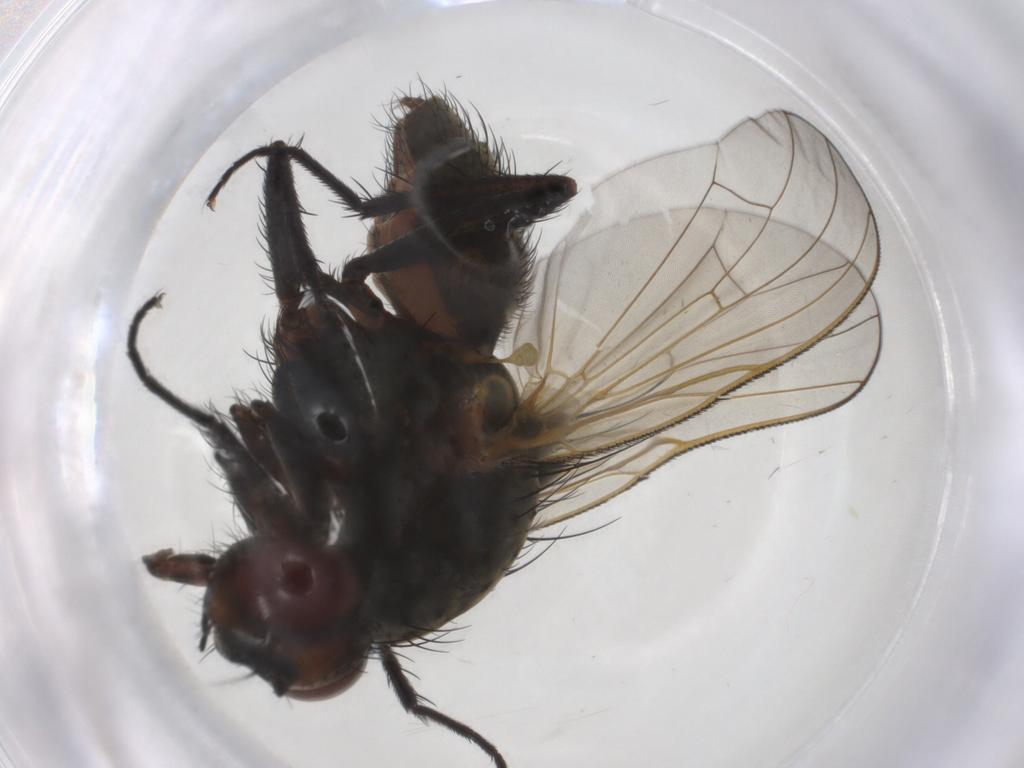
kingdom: Animalia
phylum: Arthropoda
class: Insecta
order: Diptera
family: Anthomyiidae
